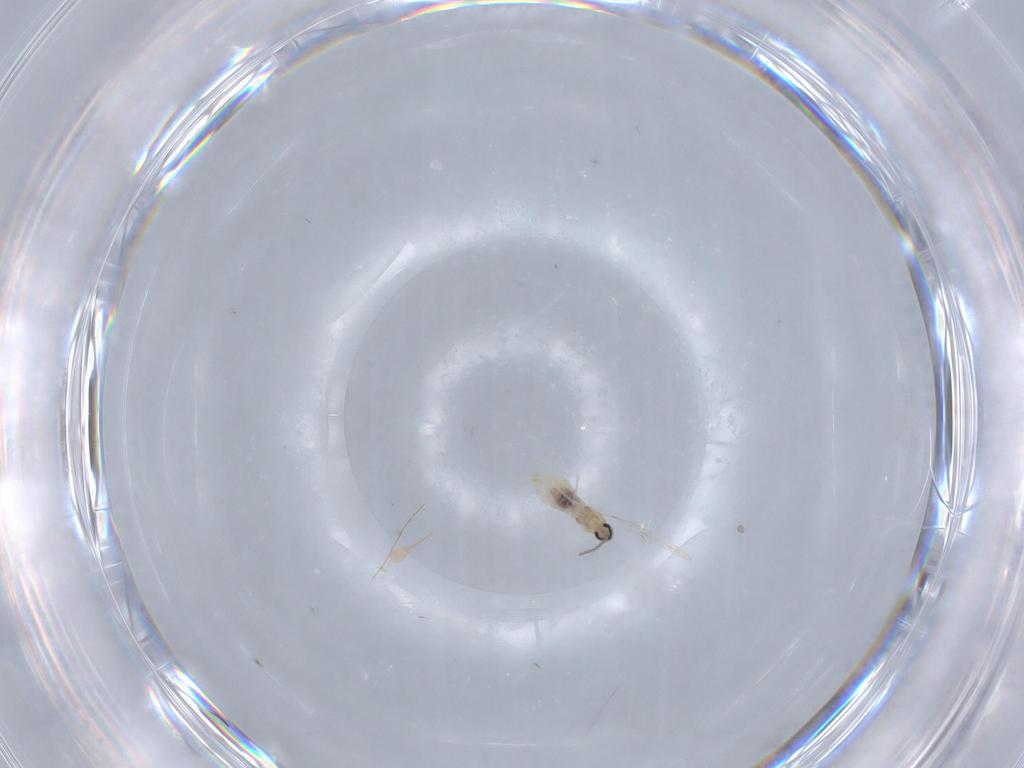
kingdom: Animalia
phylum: Arthropoda
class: Insecta
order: Diptera
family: Cecidomyiidae
